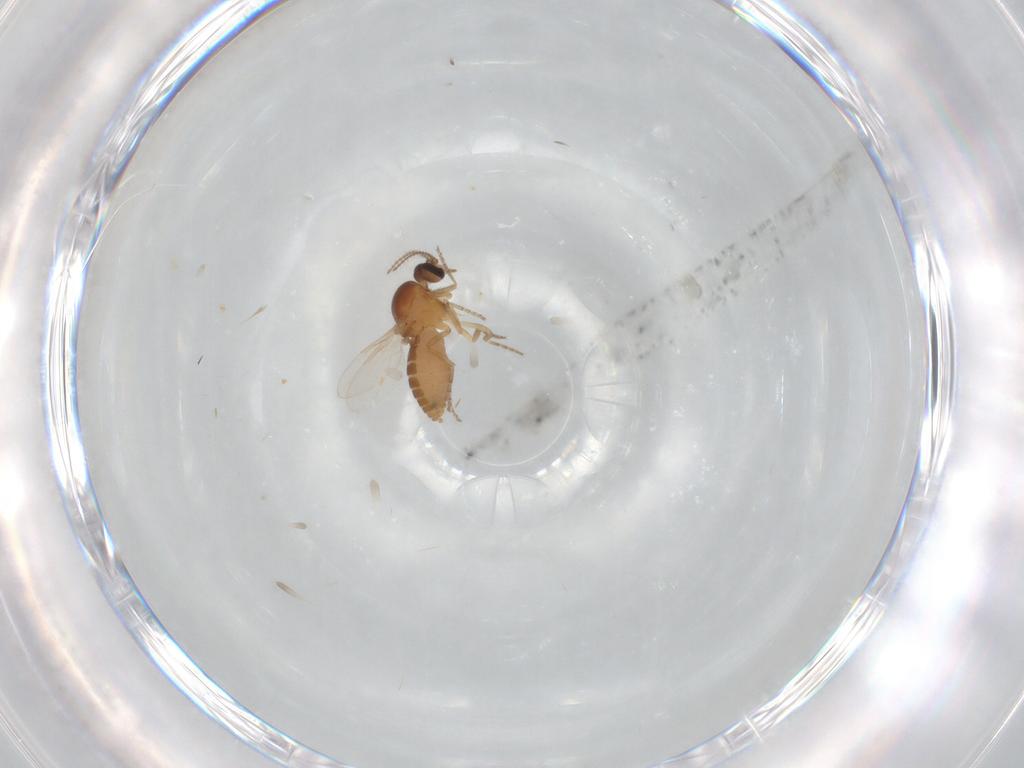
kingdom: Animalia
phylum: Arthropoda
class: Insecta
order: Diptera
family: Ceratopogonidae
